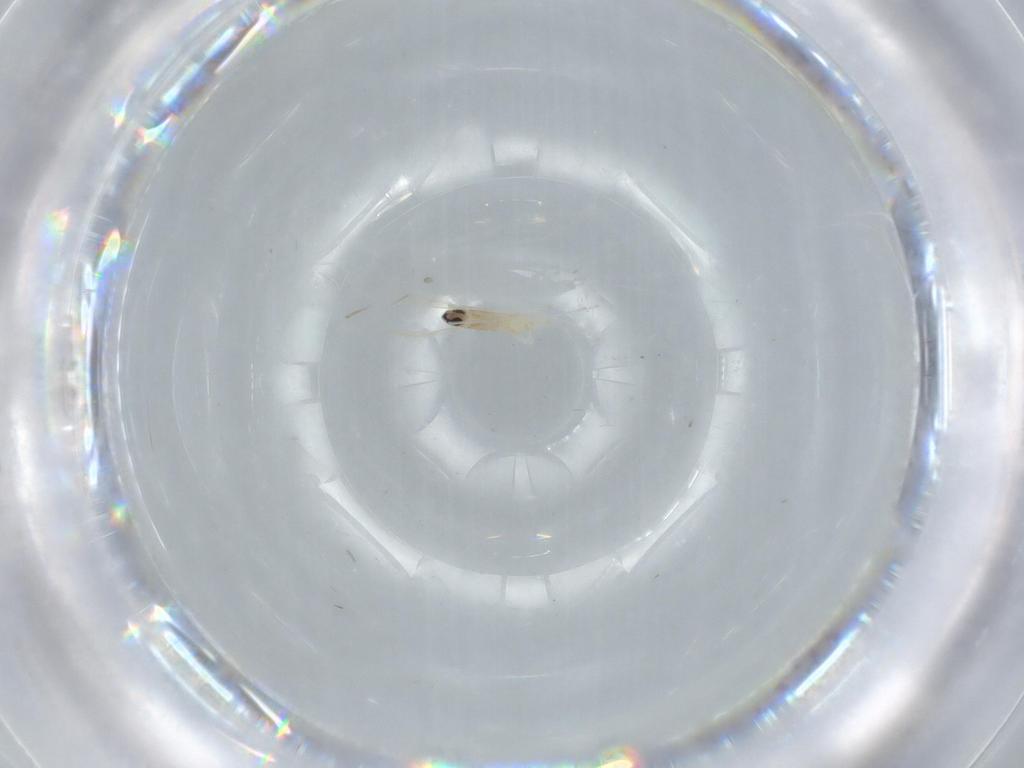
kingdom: Animalia
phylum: Arthropoda
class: Insecta
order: Diptera
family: Cecidomyiidae
